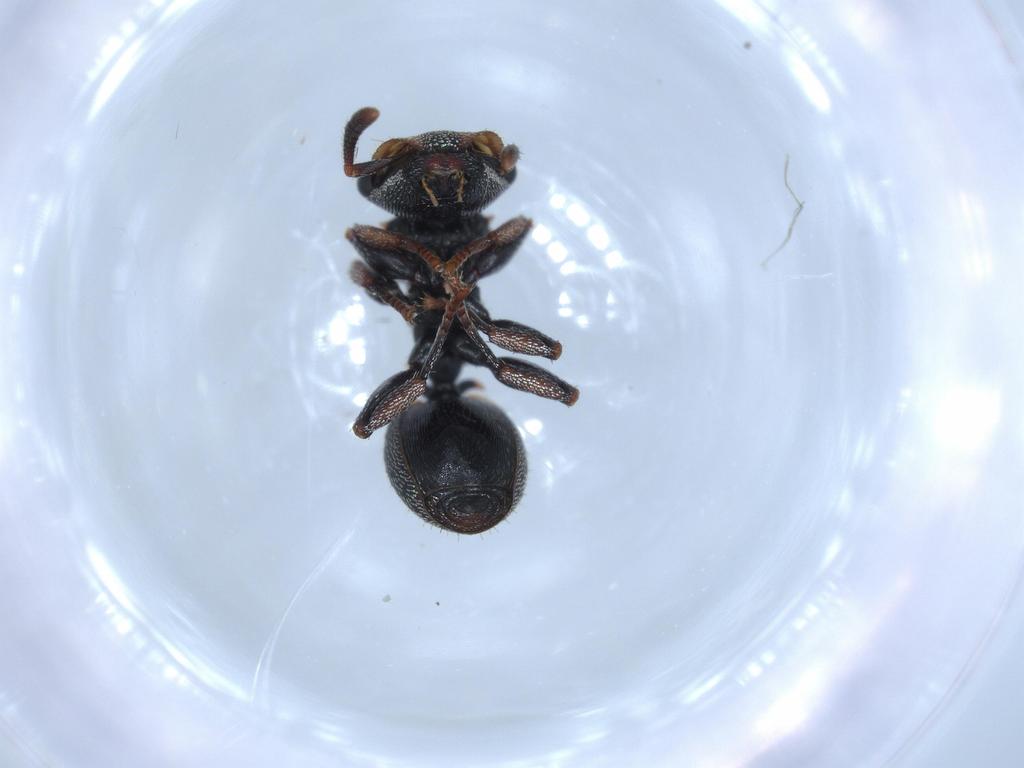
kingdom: Animalia
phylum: Arthropoda
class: Insecta
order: Hymenoptera
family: Formicidae
